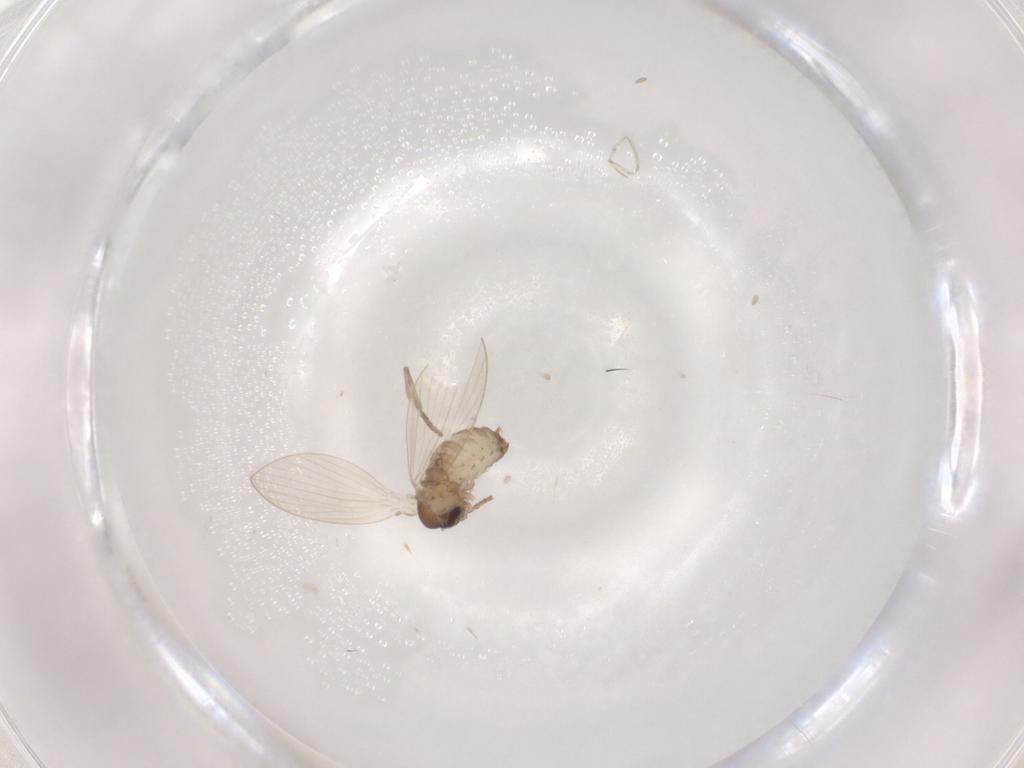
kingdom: Animalia
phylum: Arthropoda
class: Insecta
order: Diptera
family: Psychodidae
